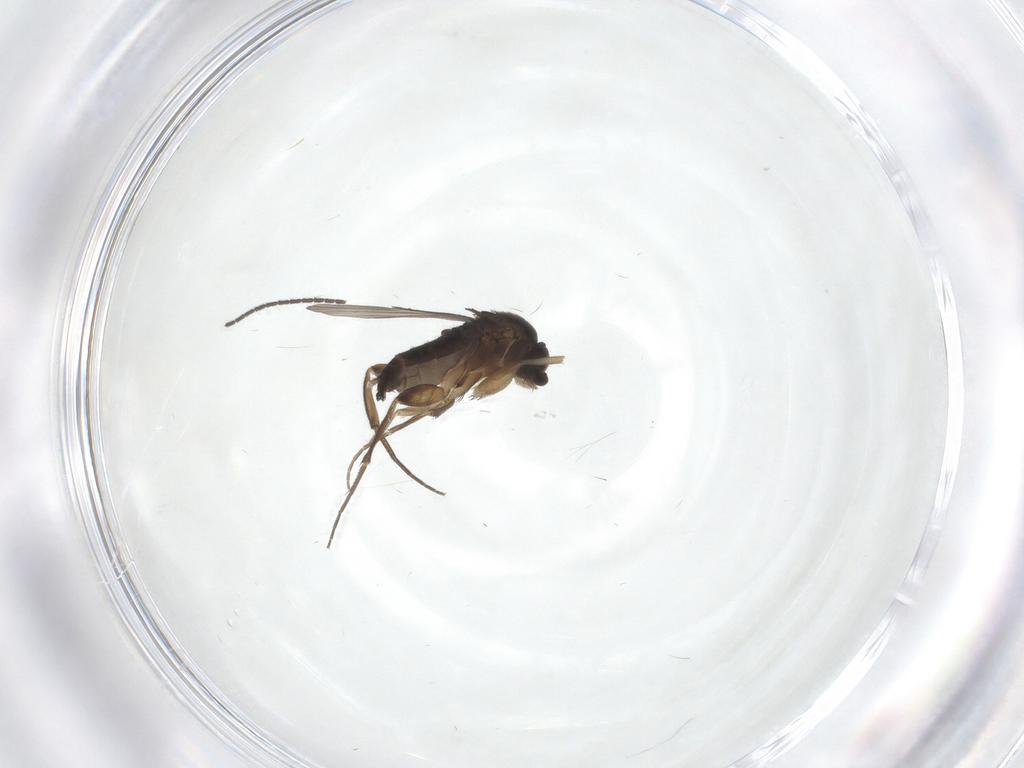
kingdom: Animalia
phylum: Arthropoda
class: Insecta
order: Diptera
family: Phoridae
